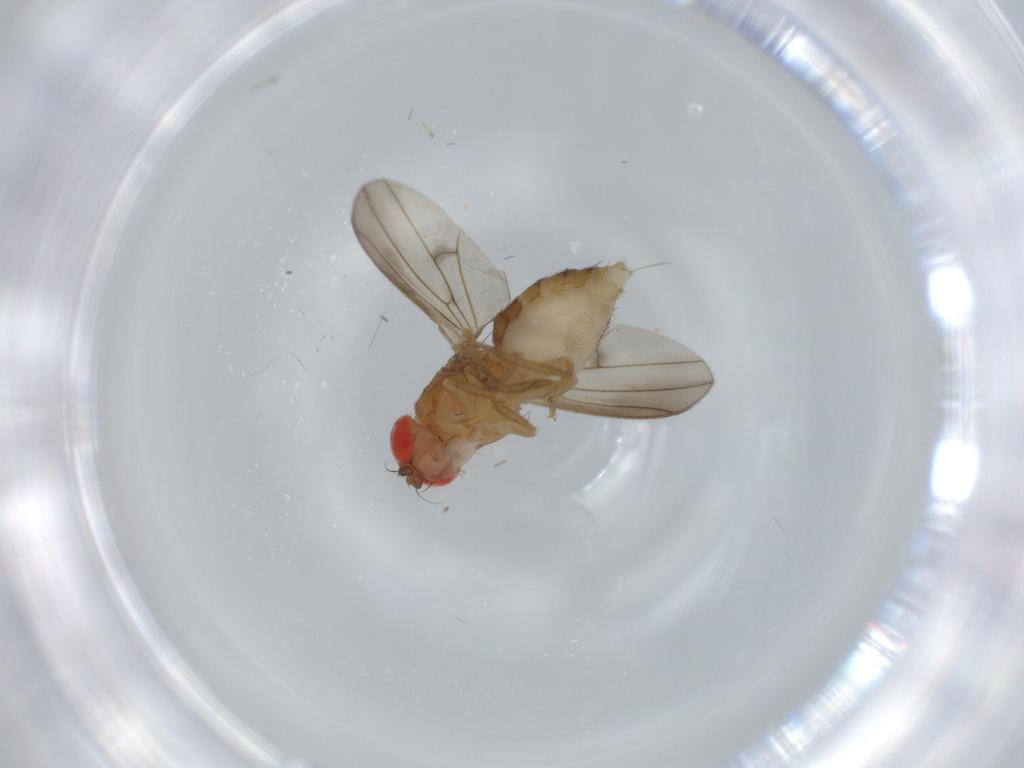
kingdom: Animalia
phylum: Arthropoda
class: Insecta
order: Diptera
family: Drosophilidae
